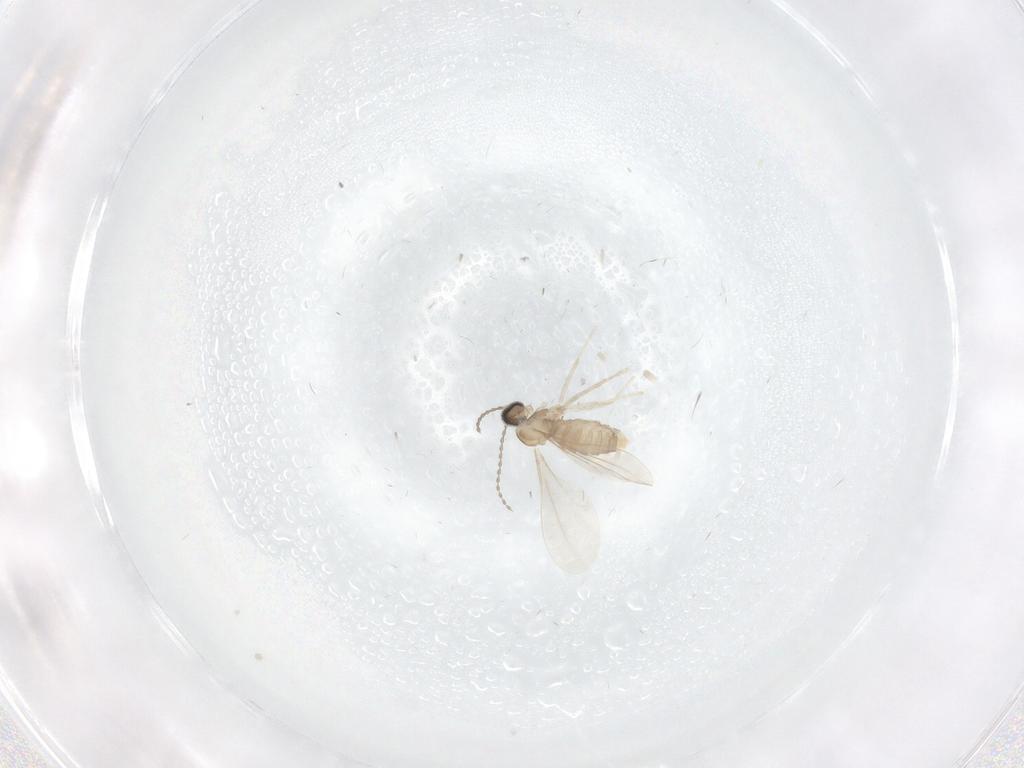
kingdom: Animalia
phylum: Arthropoda
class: Insecta
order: Diptera
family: Cecidomyiidae
